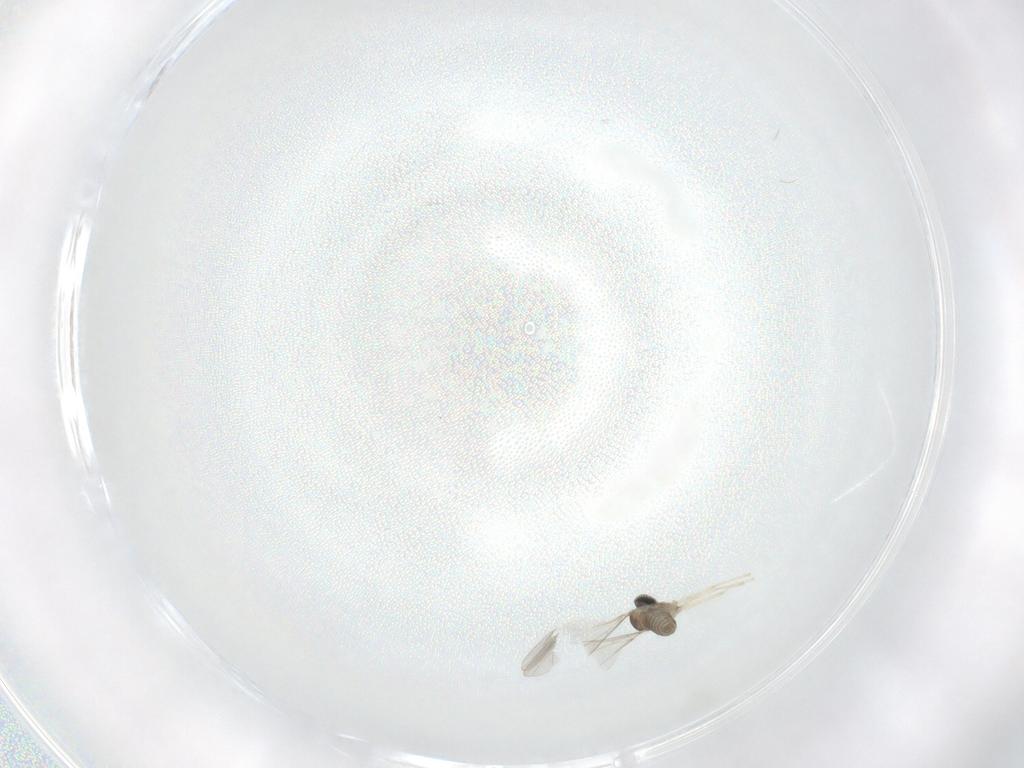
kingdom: Animalia
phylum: Arthropoda
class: Insecta
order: Diptera
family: Cecidomyiidae
